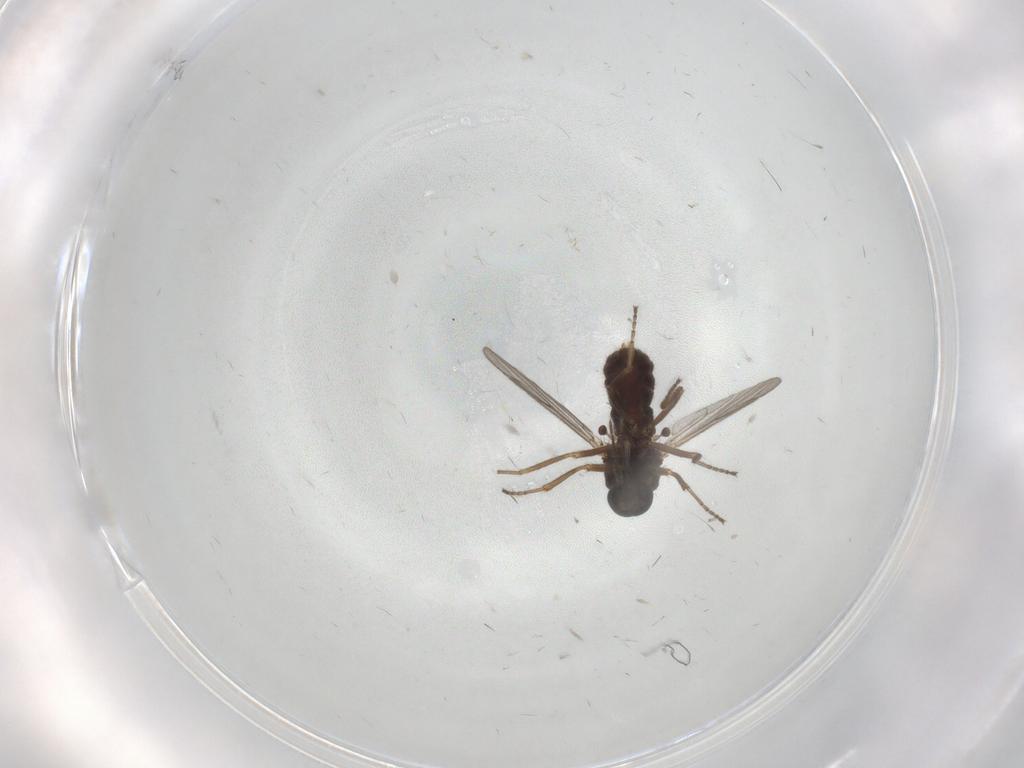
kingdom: Animalia
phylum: Arthropoda
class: Insecta
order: Diptera
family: Ceratopogonidae
